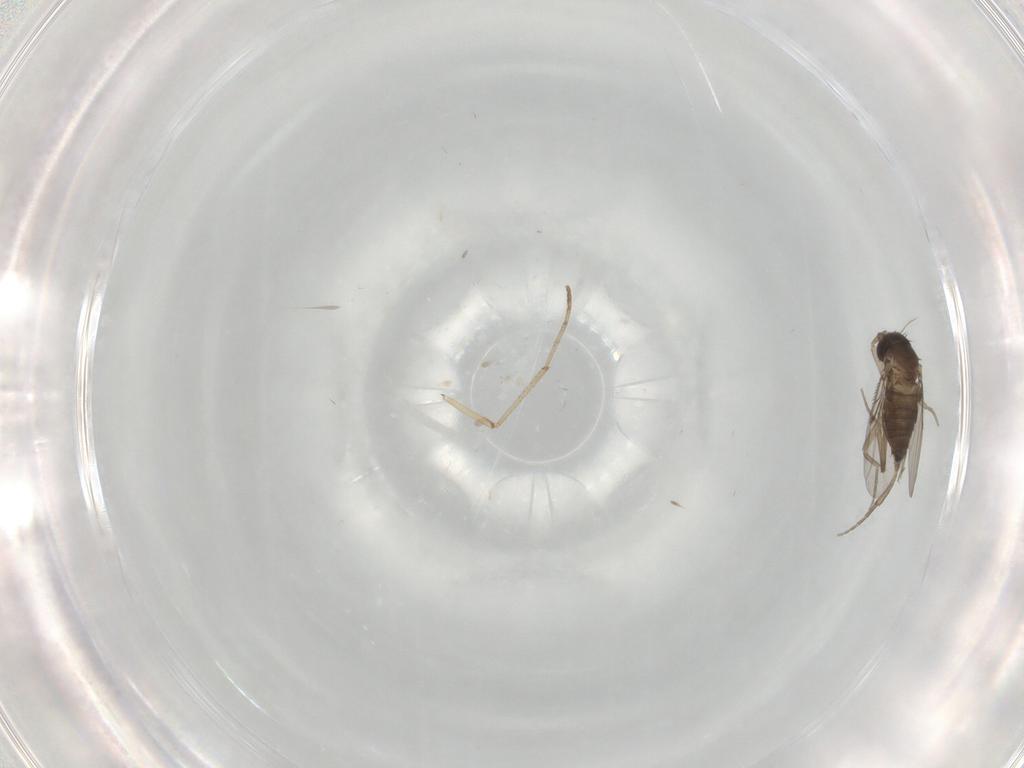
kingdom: Animalia
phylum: Arthropoda
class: Insecta
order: Diptera
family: Phoridae
